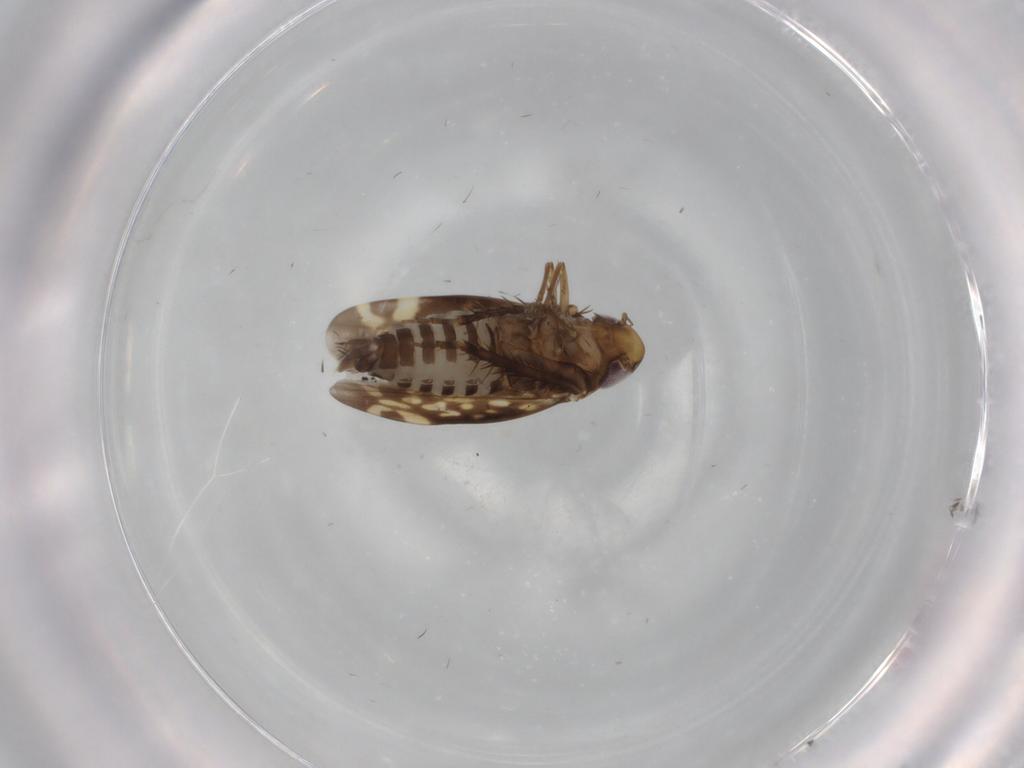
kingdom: Animalia
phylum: Arthropoda
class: Insecta
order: Hemiptera
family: Cicadellidae
